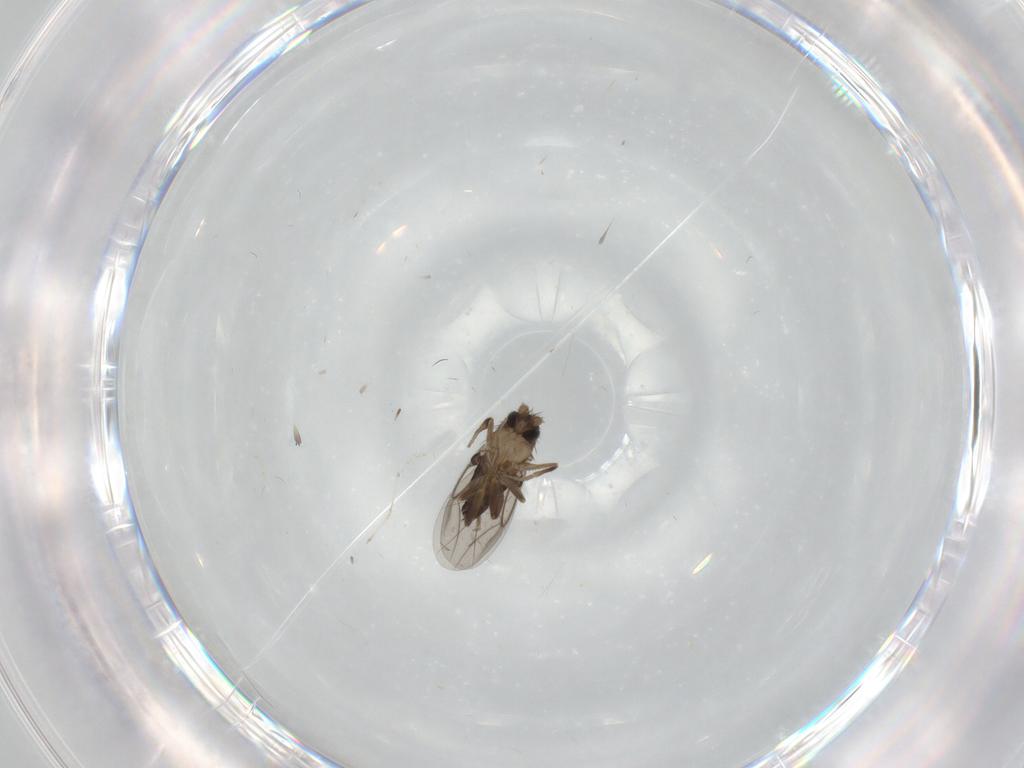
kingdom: Animalia
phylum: Arthropoda
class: Insecta
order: Diptera
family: Phoridae
